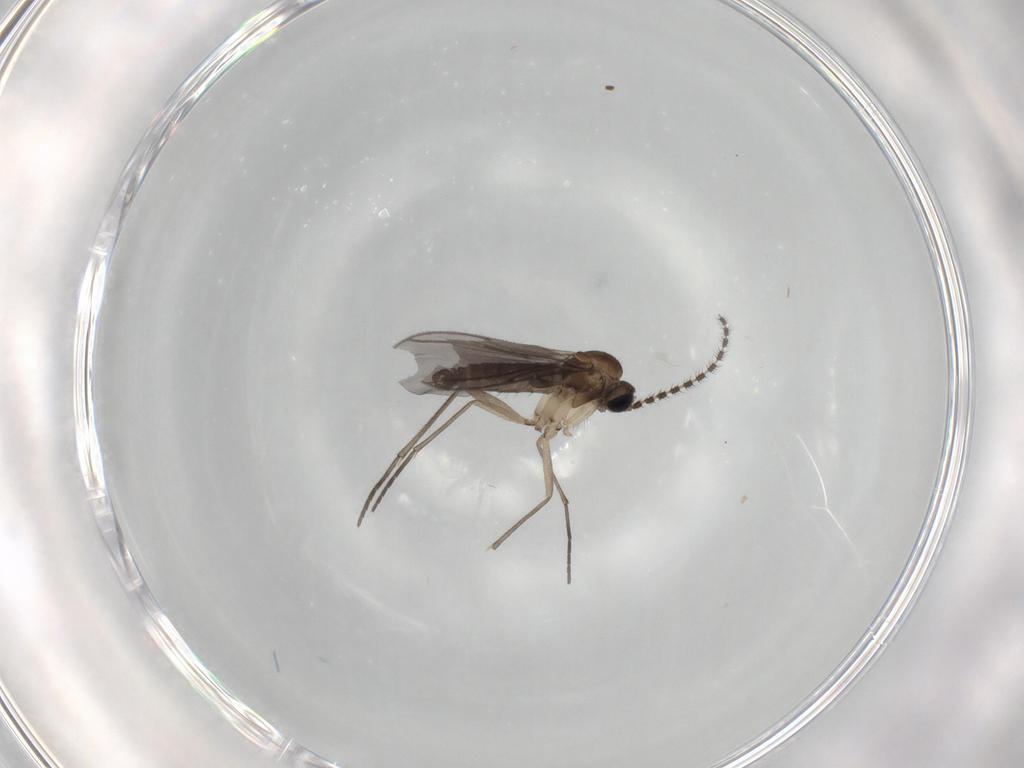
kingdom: Animalia
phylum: Arthropoda
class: Insecta
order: Diptera
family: Sciaridae
